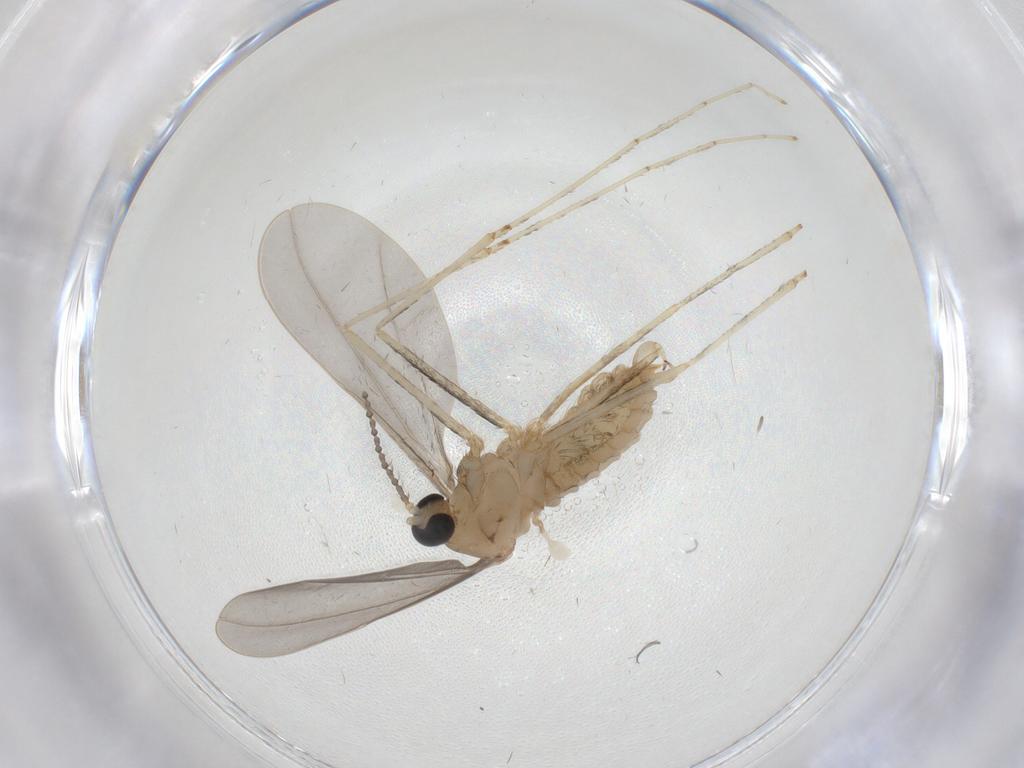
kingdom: Animalia
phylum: Arthropoda
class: Insecta
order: Diptera
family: Cecidomyiidae
